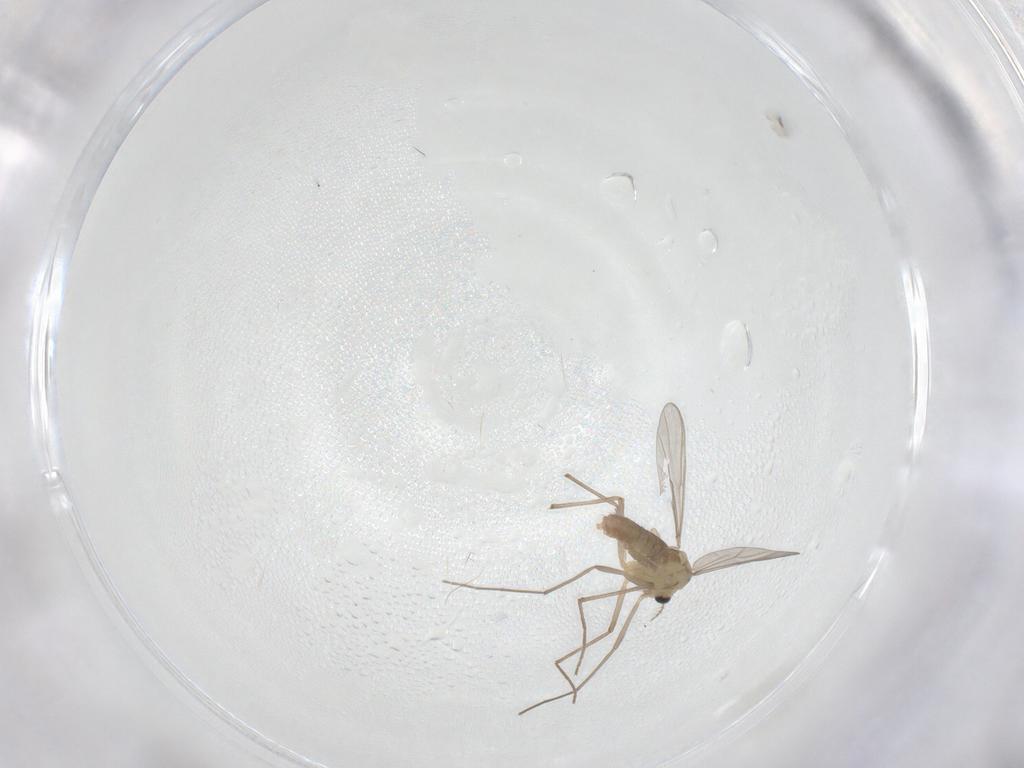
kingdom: Animalia
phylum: Arthropoda
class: Insecta
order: Diptera
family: Chironomidae
